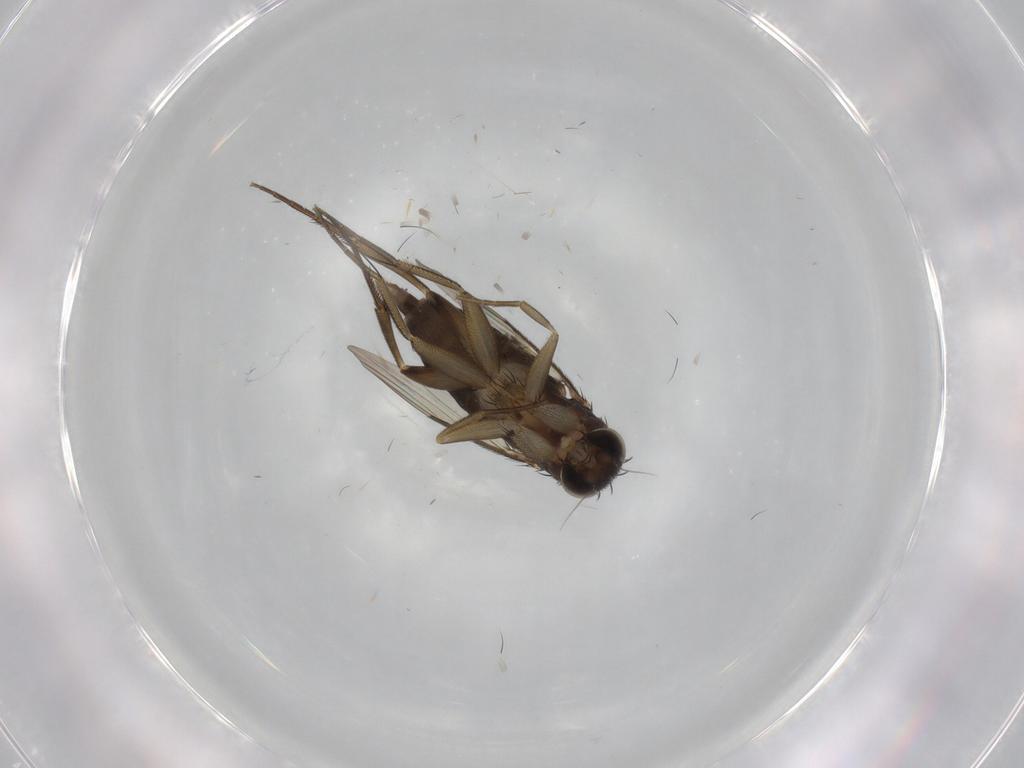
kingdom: Animalia
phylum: Arthropoda
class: Insecta
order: Diptera
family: Phoridae
